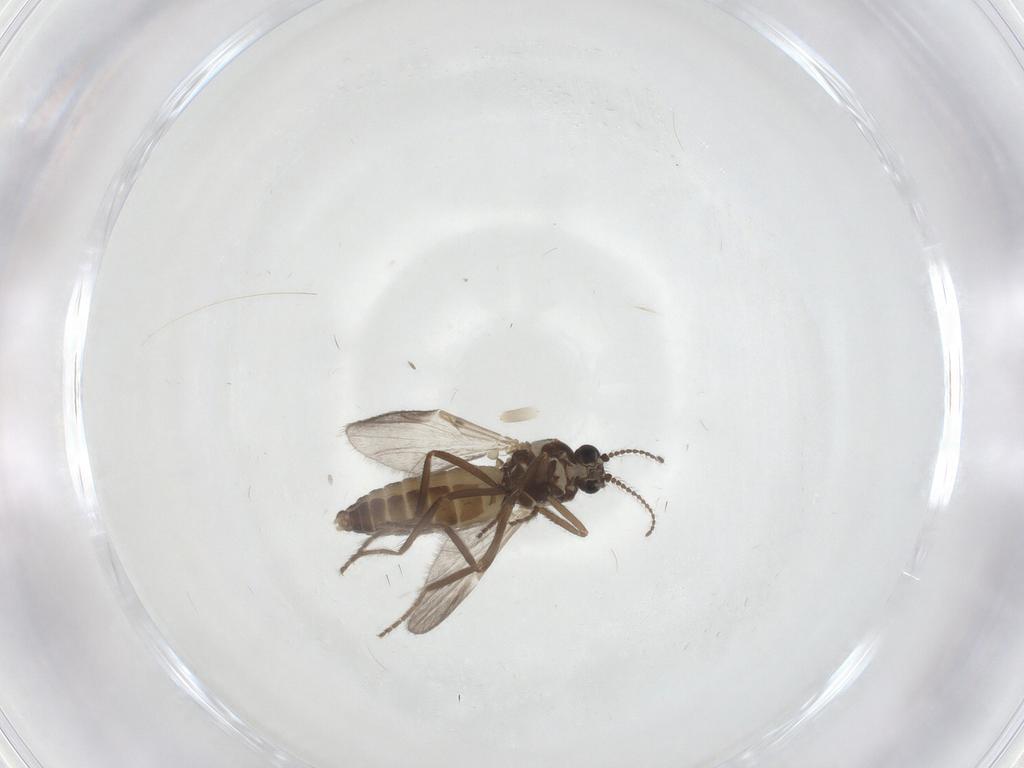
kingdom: Animalia
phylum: Arthropoda
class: Insecta
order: Diptera
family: Ceratopogonidae
